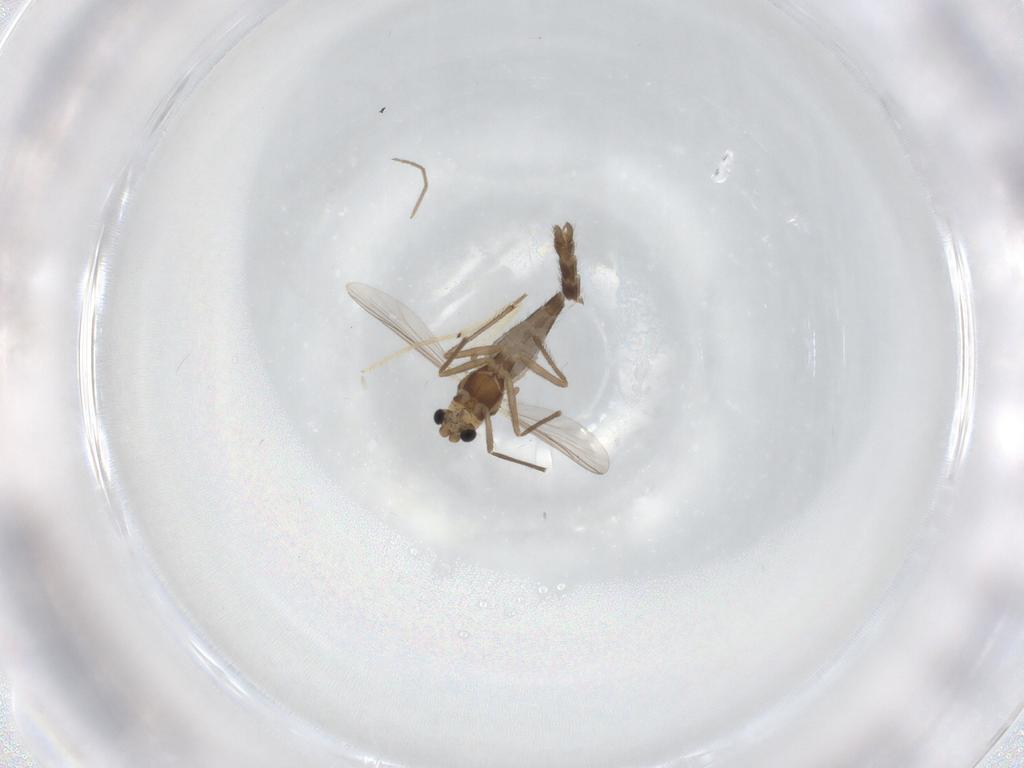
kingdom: Animalia
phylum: Arthropoda
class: Insecta
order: Diptera
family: Chironomidae
